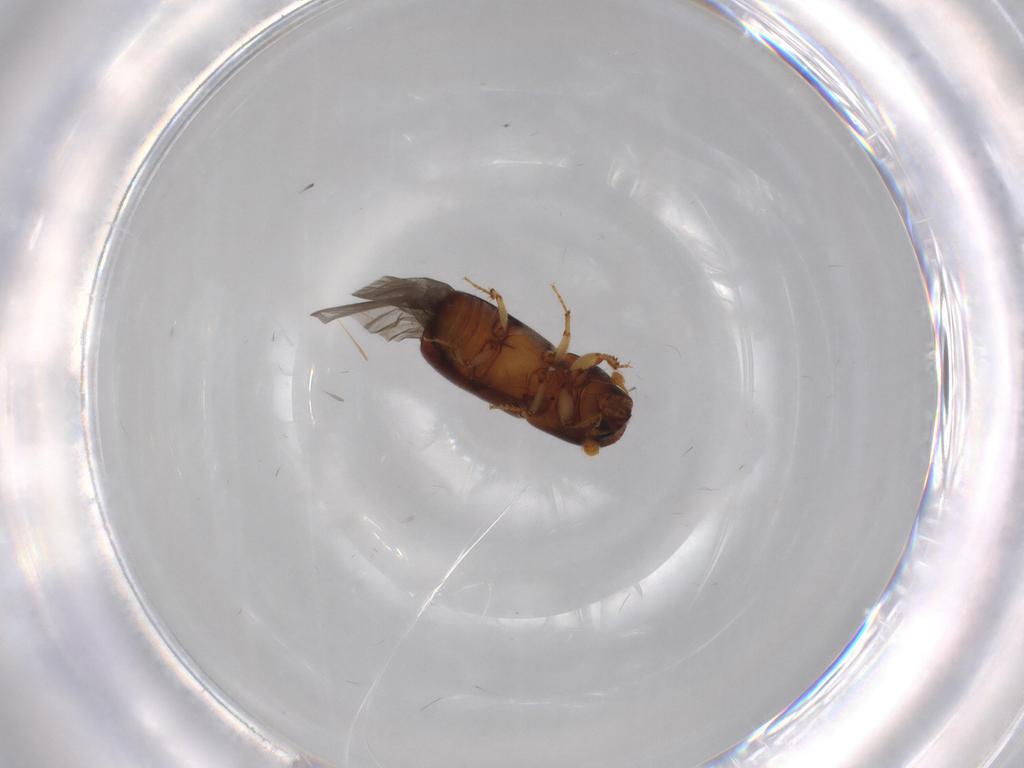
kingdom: Animalia
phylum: Arthropoda
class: Insecta
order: Coleoptera
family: Curculionidae
